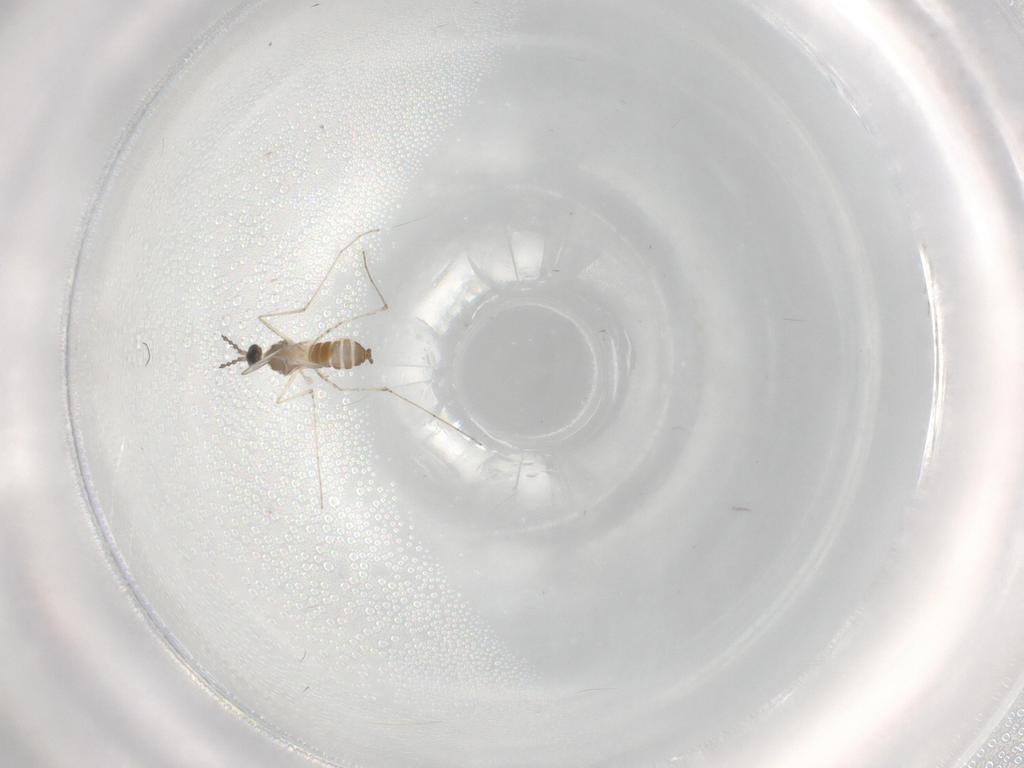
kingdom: Animalia
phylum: Arthropoda
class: Insecta
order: Diptera
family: Cecidomyiidae
